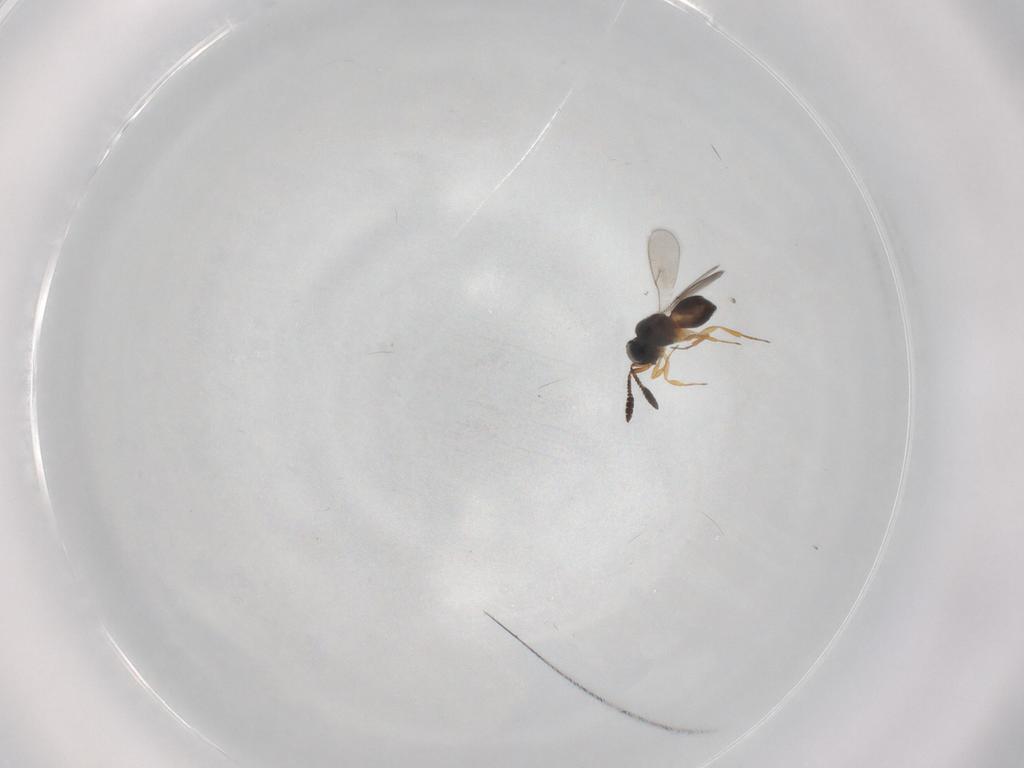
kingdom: Animalia
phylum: Arthropoda
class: Insecta
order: Hymenoptera
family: Scelionidae
